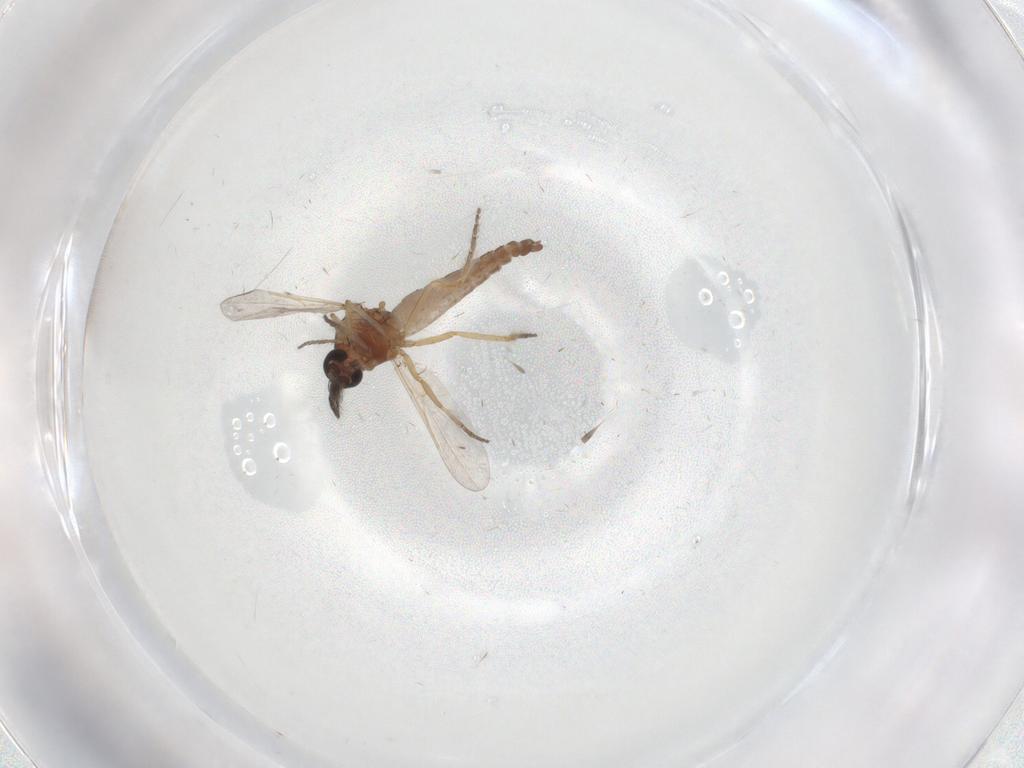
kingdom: Animalia
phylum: Arthropoda
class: Insecta
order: Diptera
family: Ceratopogonidae
